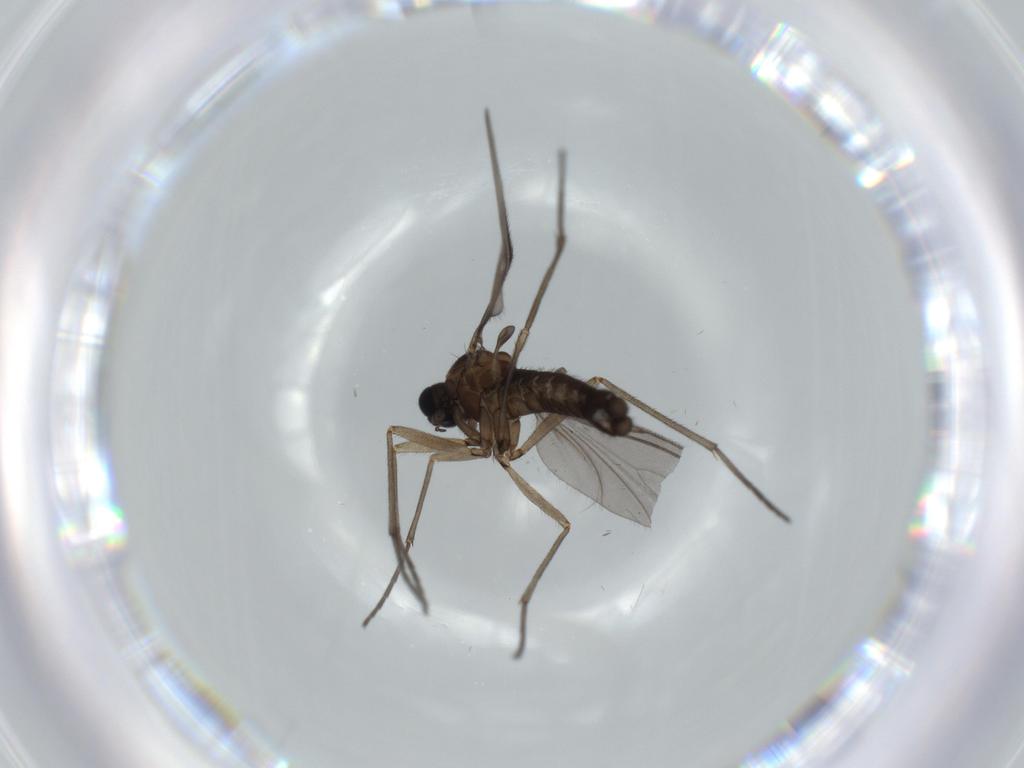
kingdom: Animalia
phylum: Arthropoda
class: Insecta
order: Diptera
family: Sciaridae
